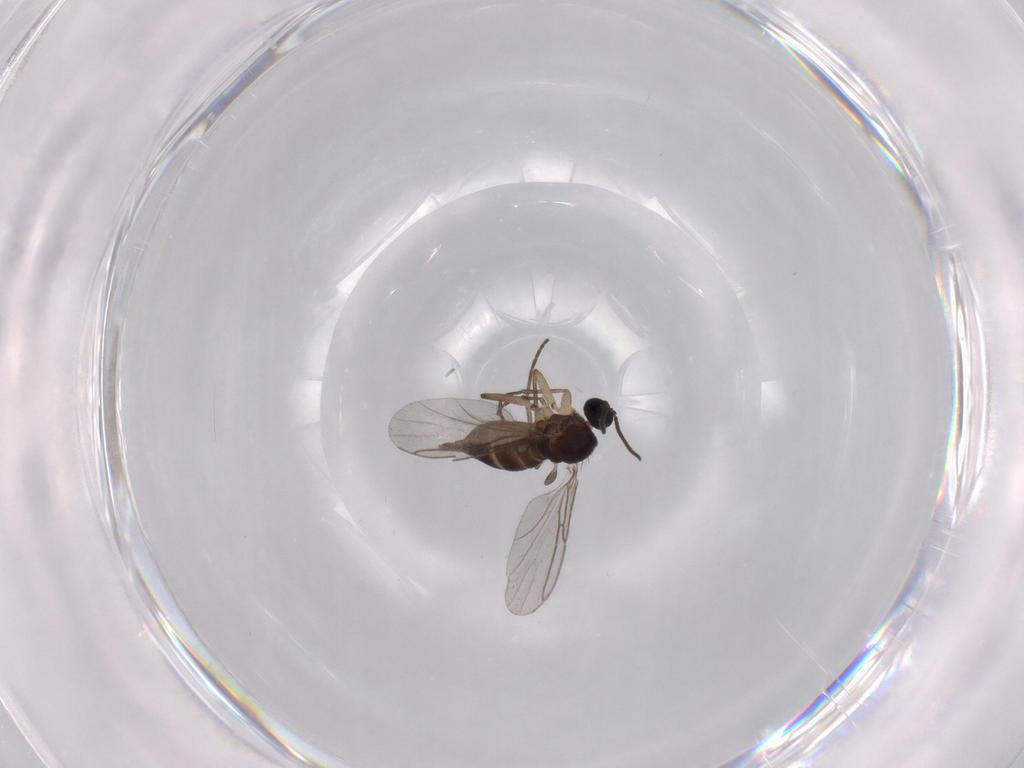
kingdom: Animalia
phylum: Arthropoda
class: Insecta
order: Diptera
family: Sciaridae
